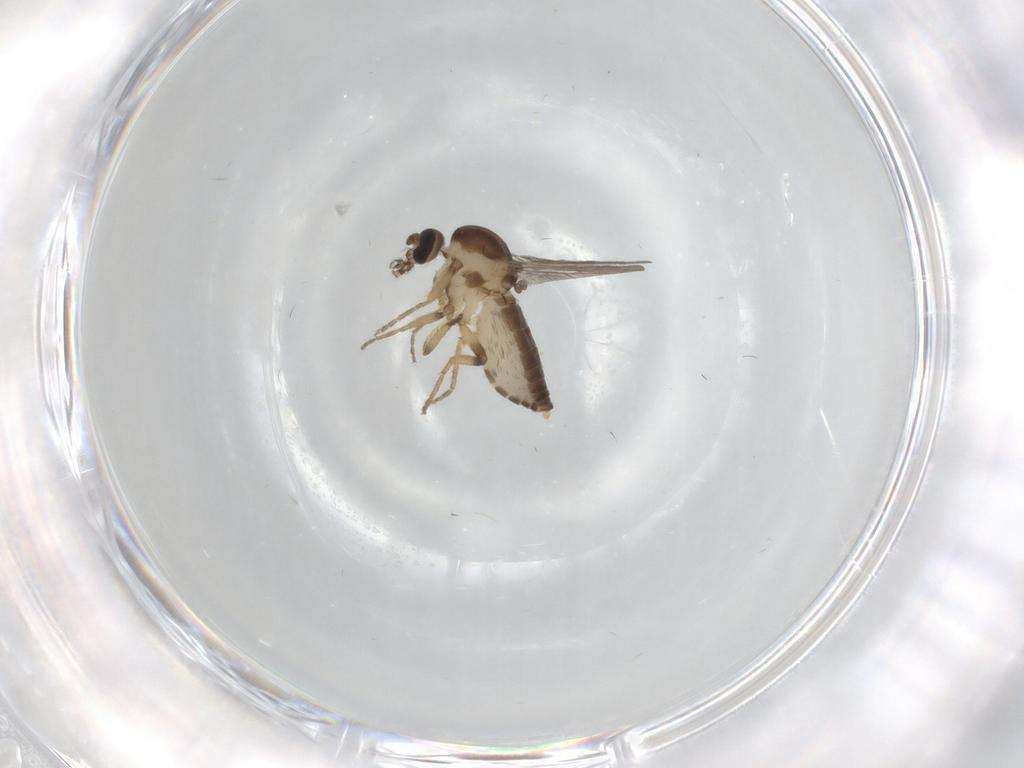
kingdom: Animalia
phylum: Arthropoda
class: Insecta
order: Diptera
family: Ceratopogonidae
